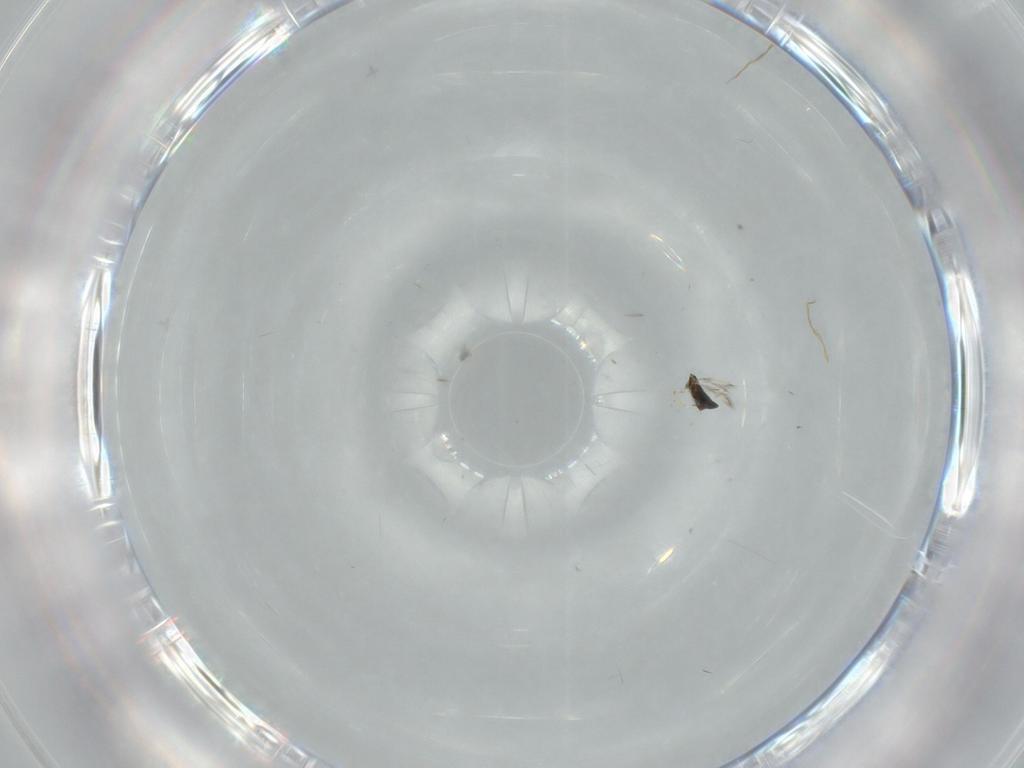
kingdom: Animalia
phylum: Arthropoda
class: Insecta
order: Hymenoptera
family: Signiphoridae
